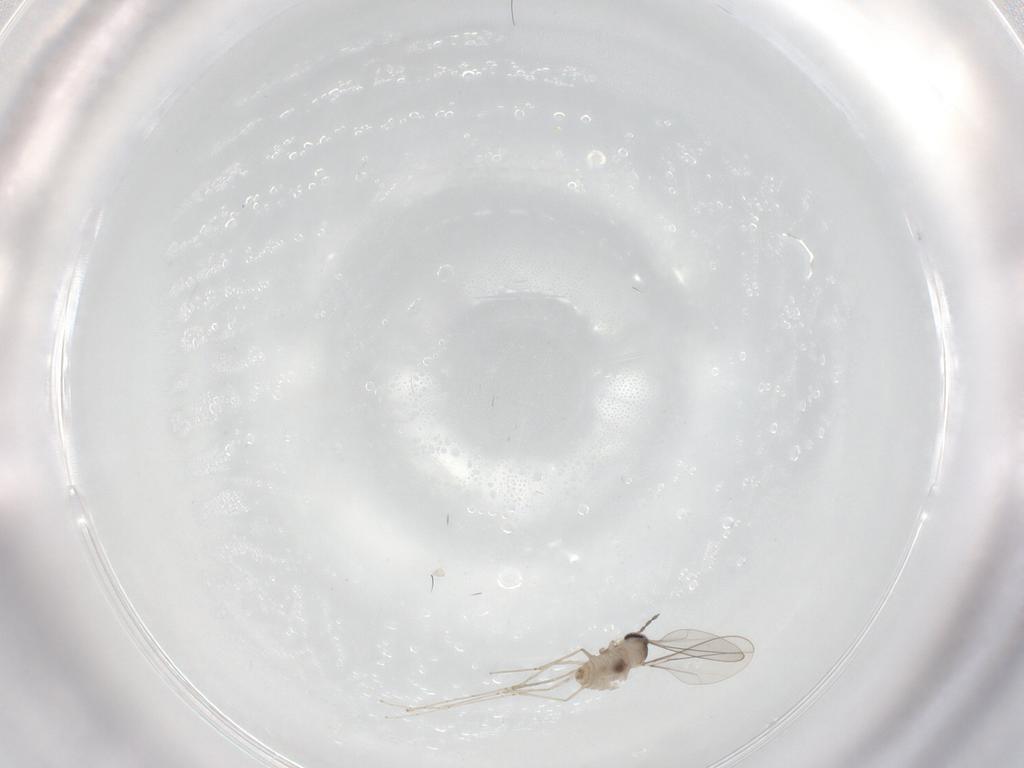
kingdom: Animalia
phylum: Arthropoda
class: Insecta
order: Diptera
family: Cecidomyiidae
